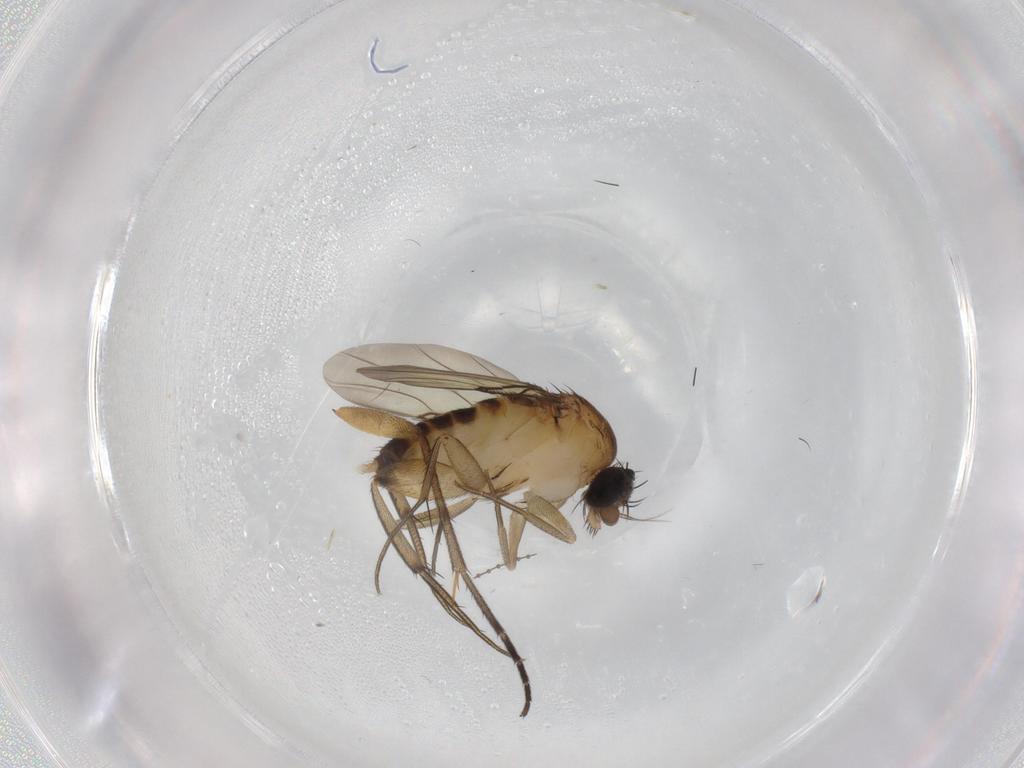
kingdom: Animalia
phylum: Arthropoda
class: Insecta
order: Diptera
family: Phoridae
